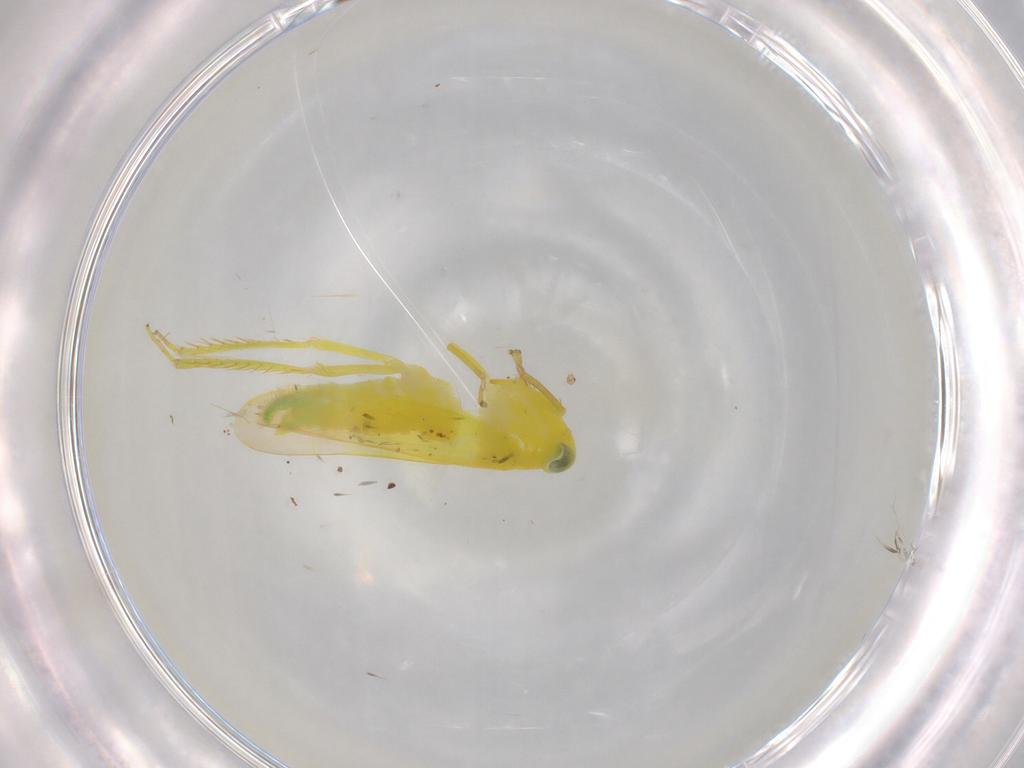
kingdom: Animalia
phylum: Arthropoda
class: Insecta
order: Hemiptera
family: Cicadellidae
